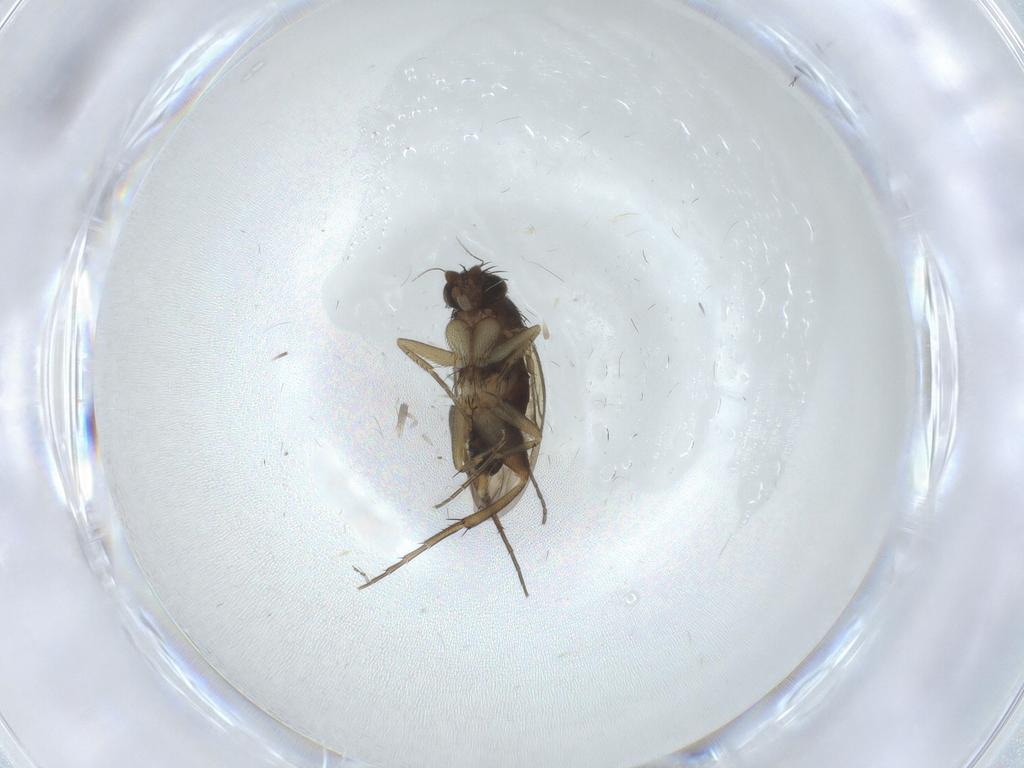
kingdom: Animalia
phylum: Arthropoda
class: Insecta
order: Diptera
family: Phoridae
